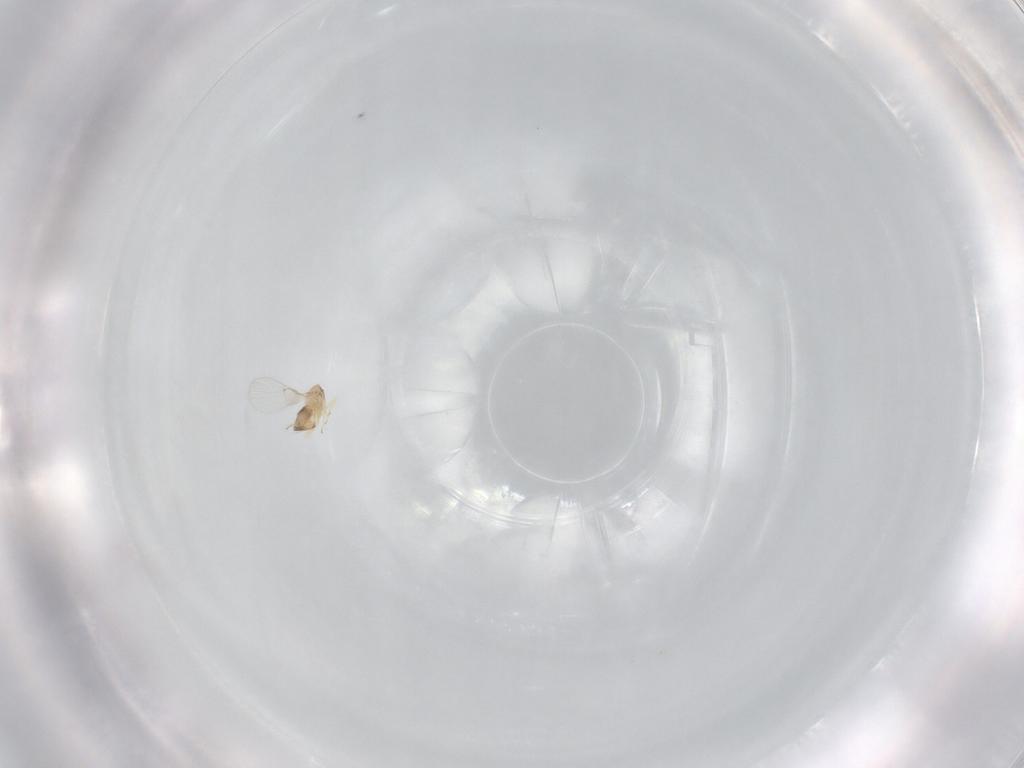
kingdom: Animalia
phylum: Arthropoda
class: Insecta
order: Hymenoptera
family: Trichogrammatidae
